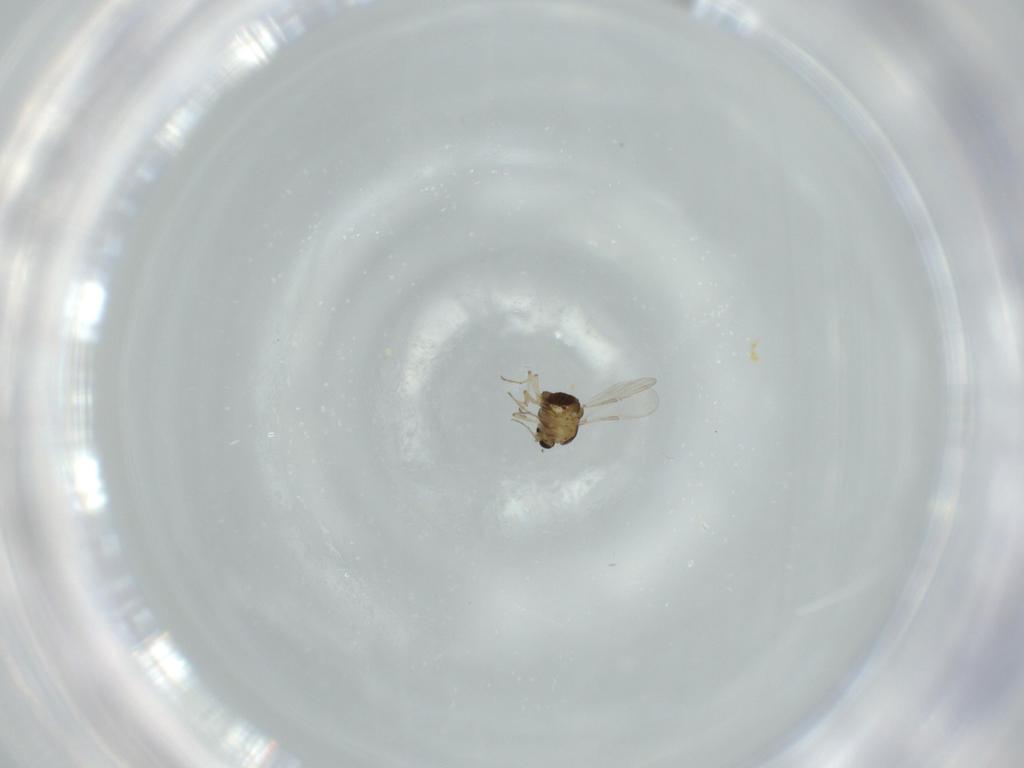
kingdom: Animalia
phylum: Arthropoda
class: Insecta
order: Diptera
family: Chironomidae
